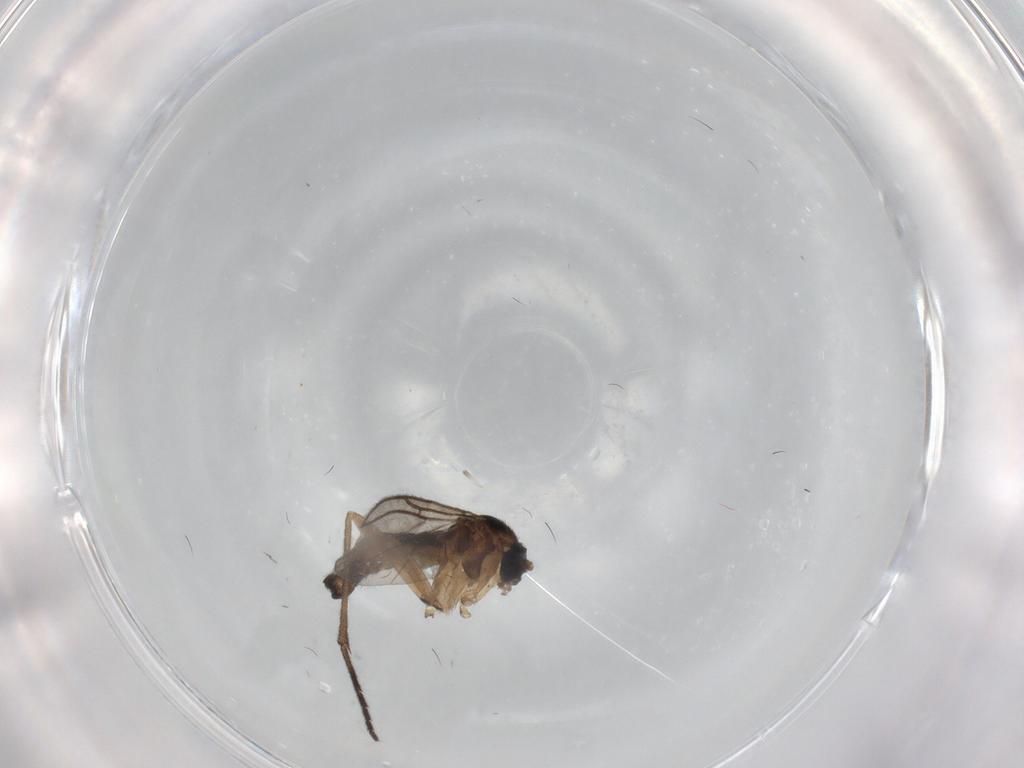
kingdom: Animalia
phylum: Arthropoda
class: Insecta
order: Diptera
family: Sciaridae
